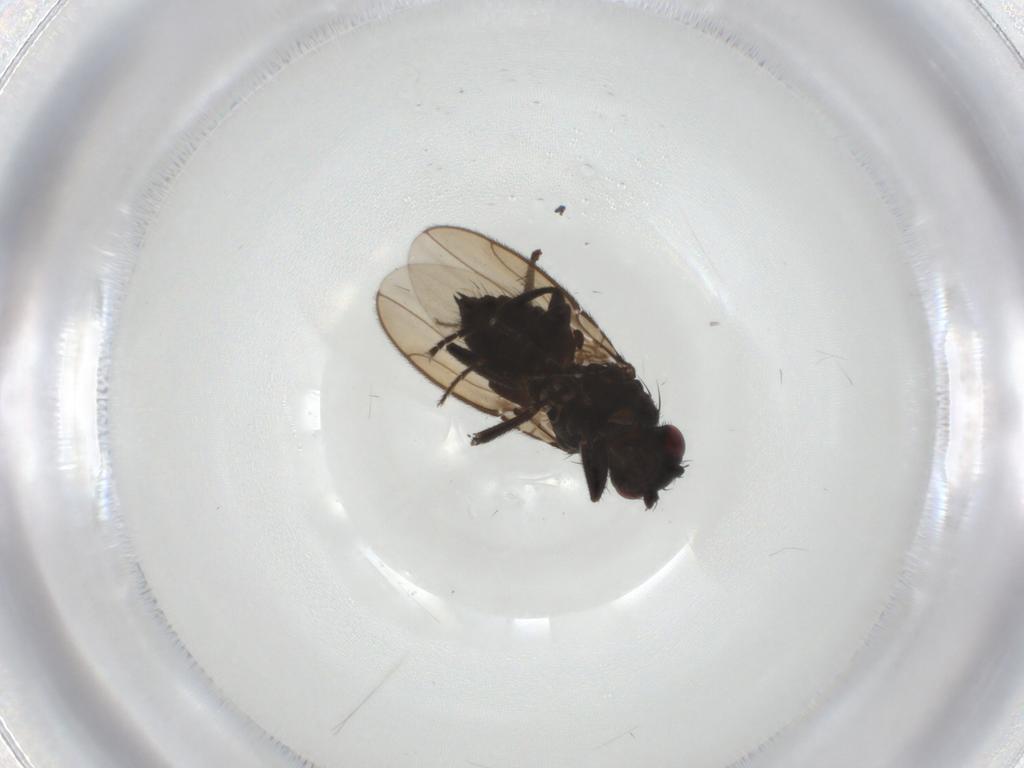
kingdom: Animalia
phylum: Arthropoda
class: Insecta
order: Diptera
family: Sphaeroceridae
